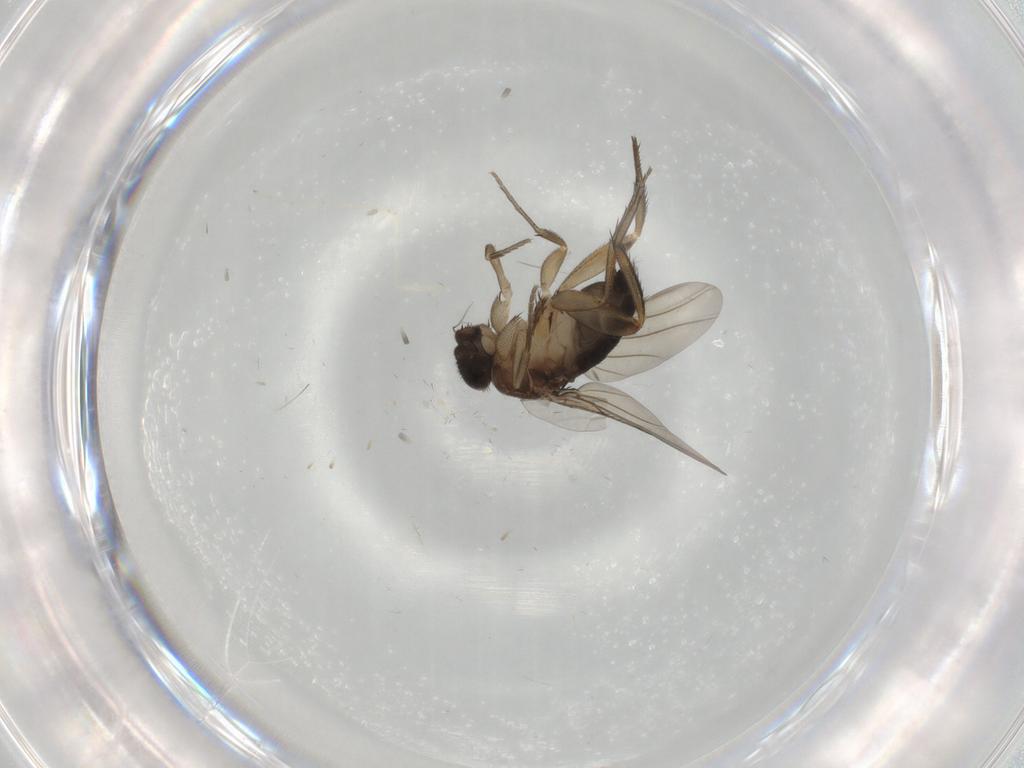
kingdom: Animalia
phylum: Arthropoda
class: Insecta
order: Diptera
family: Phoridae
